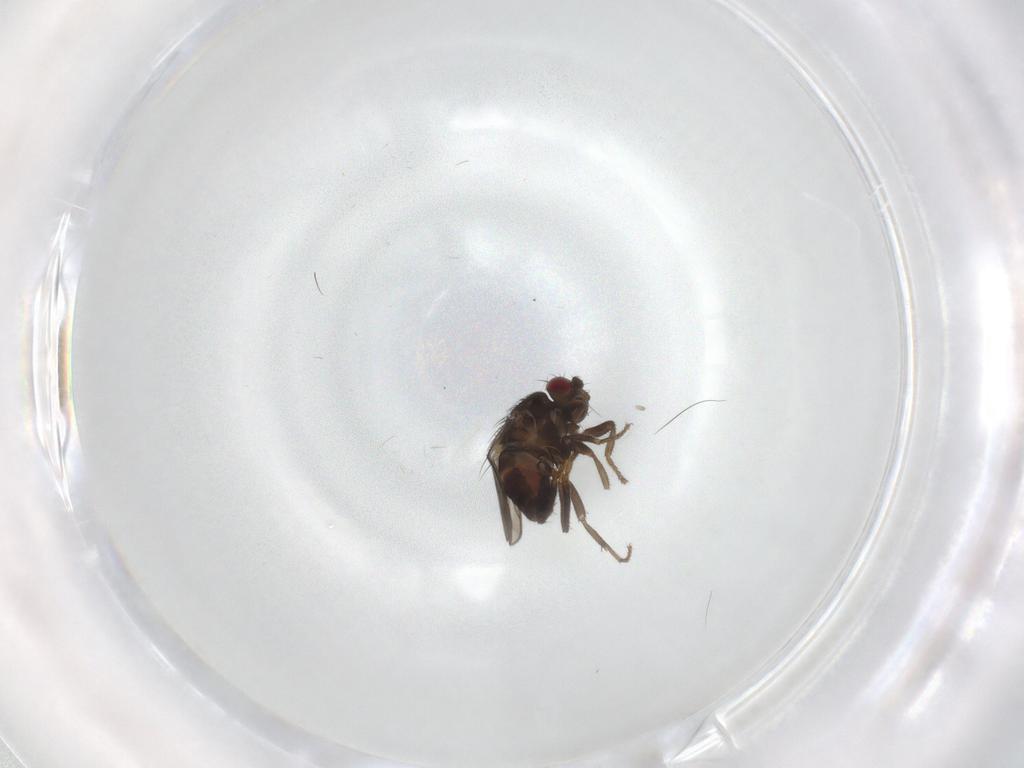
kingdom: Animalia
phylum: Arthropoda
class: Insecta
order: Diptera
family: Sphaeroceridae
